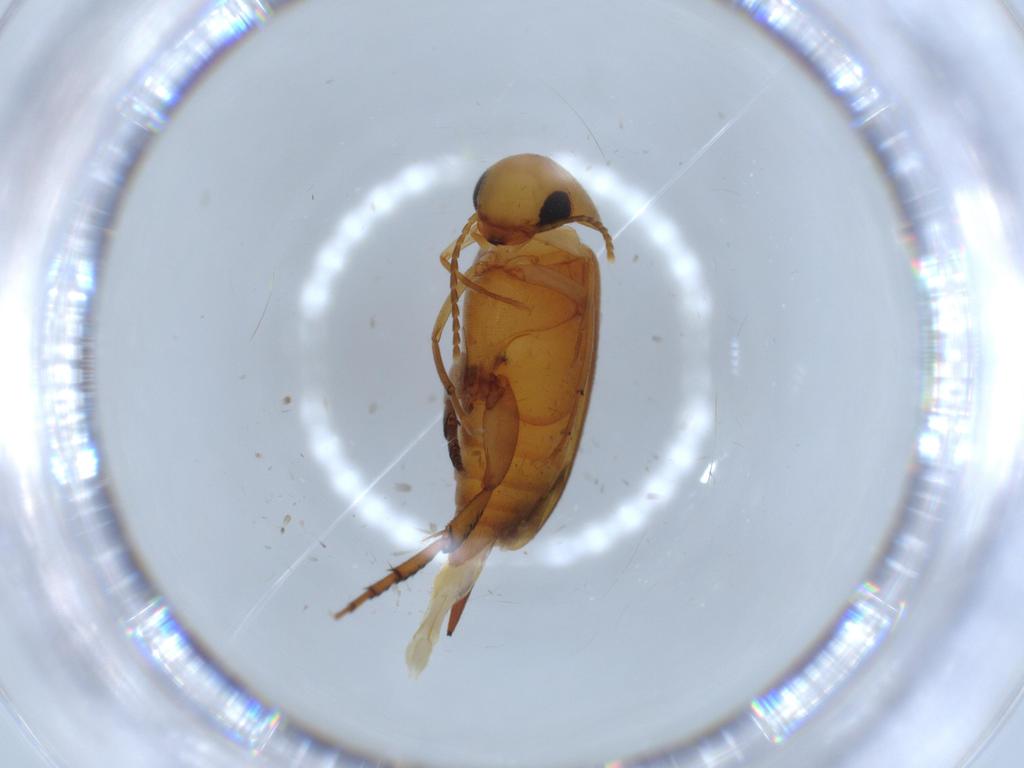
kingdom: Animalia
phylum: Arthropoda
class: Insecta
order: Coleoptera
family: Mordellidae
